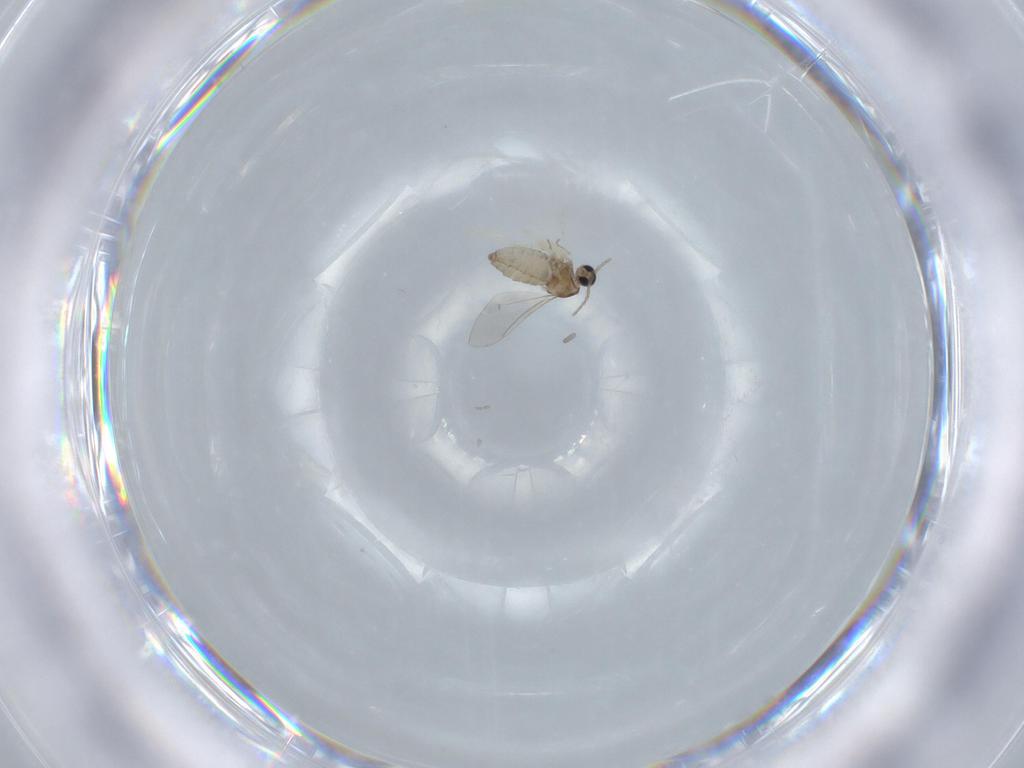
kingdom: Animalia
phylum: Arthropoda
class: Insecta
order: Diptera
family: Cecidomyiidae
